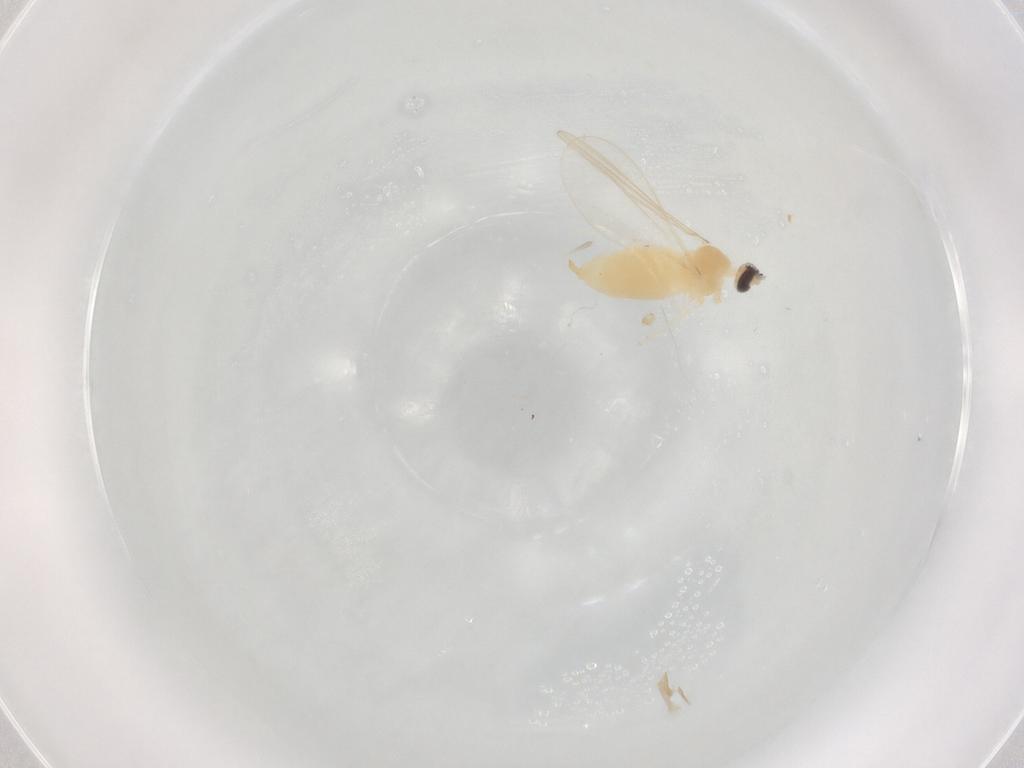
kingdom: Animalia
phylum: Arthropoda
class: Insecta
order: Diptera
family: Cecidomyiidae
